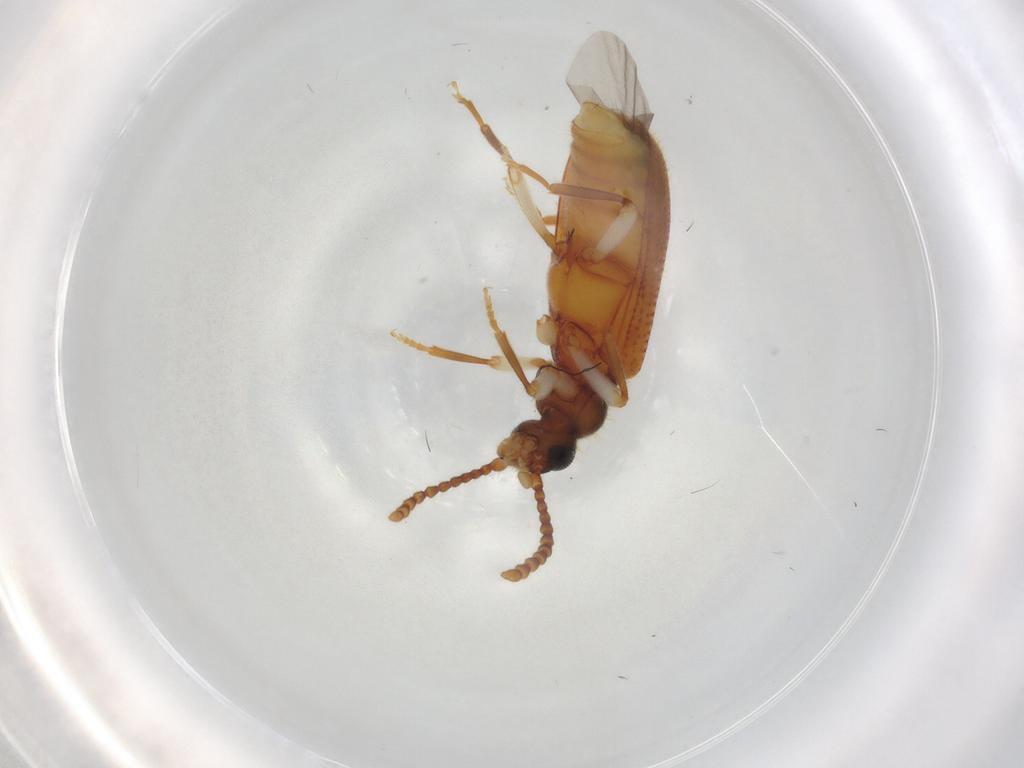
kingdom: Animalia
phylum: Arthropoda
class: Insecta
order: Coleoptera
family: Anthicidae
